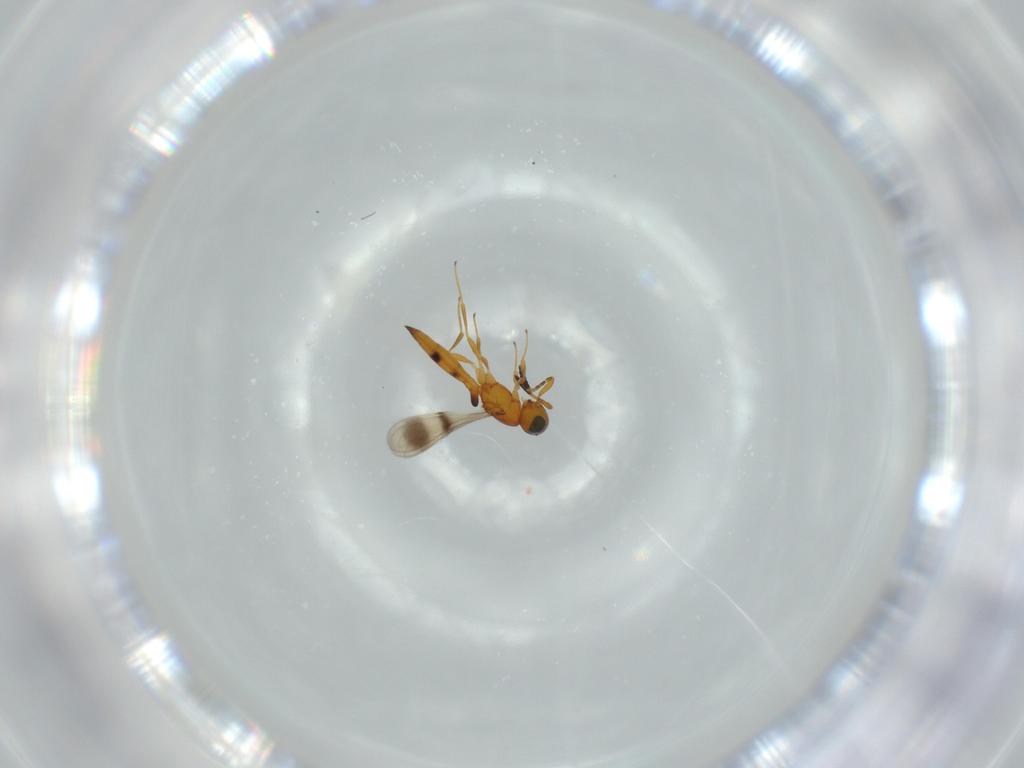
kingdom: Animalia
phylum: Arthropoda
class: Insecta
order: Hymenoptera
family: Scelionidae
